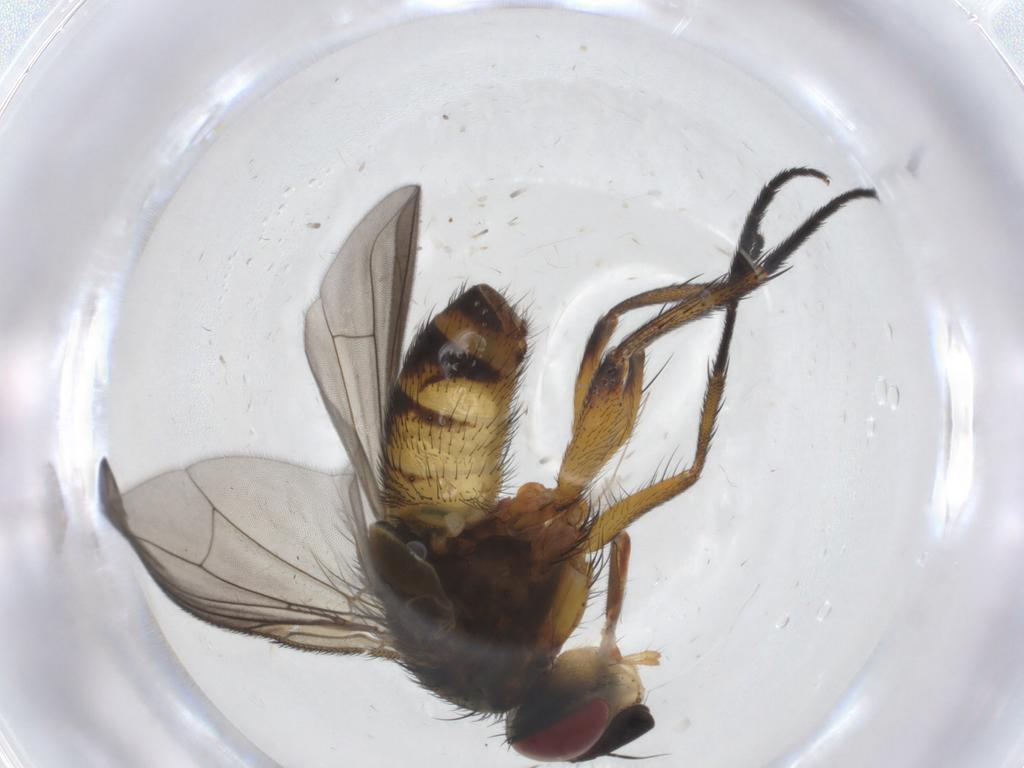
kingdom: Animalia
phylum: Arthropoda
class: Insecta
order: Diptera
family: Tachinidae
